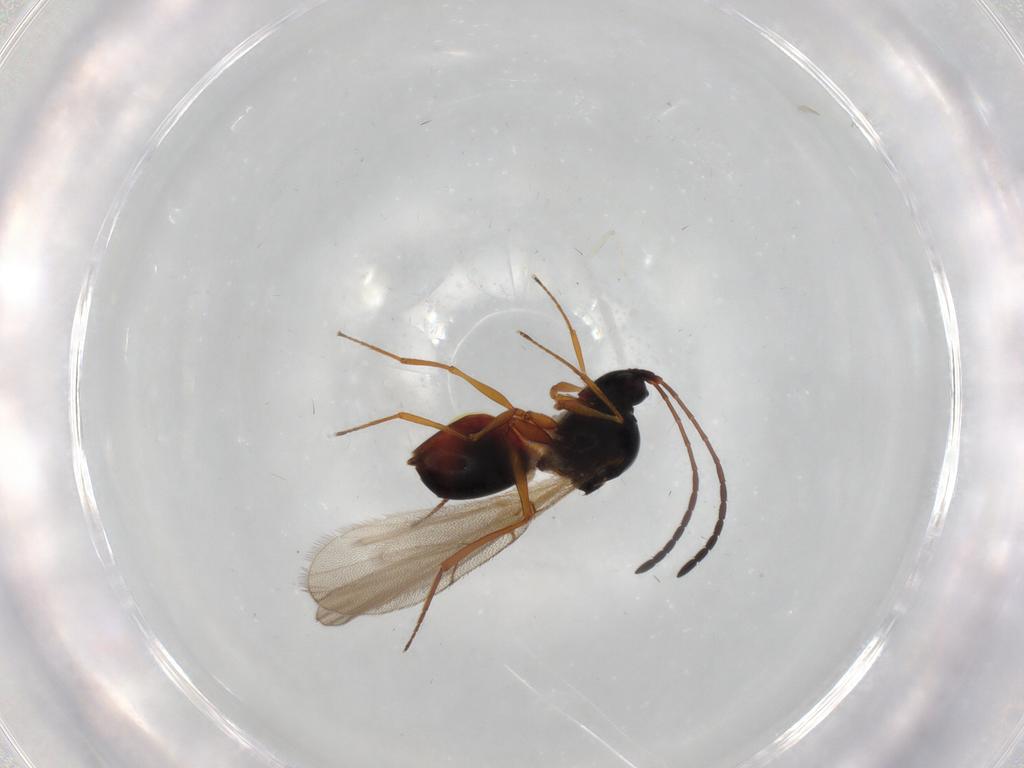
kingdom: Animalia
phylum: Arthropoda
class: Insecta
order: Hymenoptera
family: Figitidae
